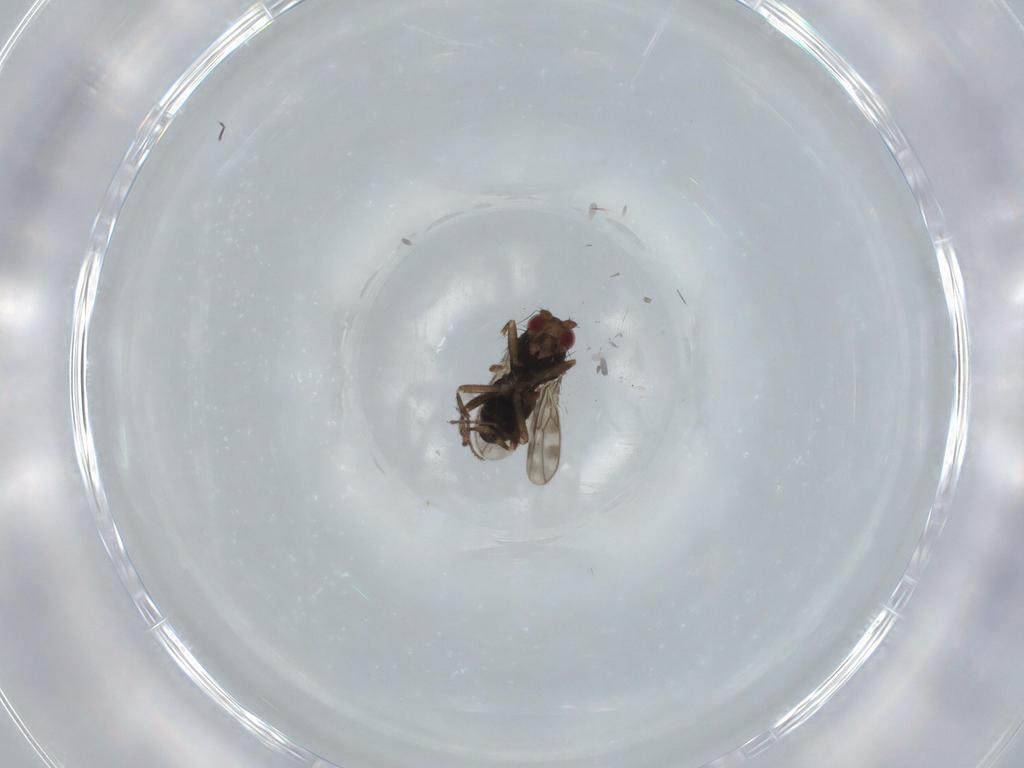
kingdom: Animalia
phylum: Arthropoda
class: Insecta
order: Diptera
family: Sphaeroceridae
